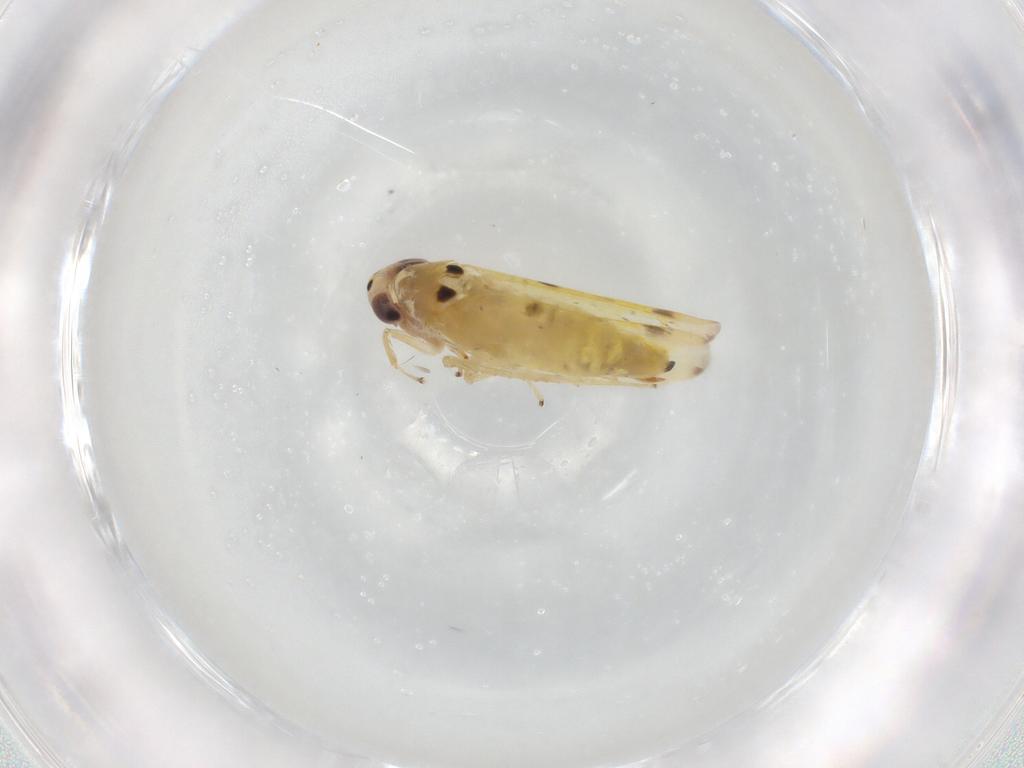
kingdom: Animalia
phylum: Arthropoda
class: Insecta
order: Hemiptera
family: Cicadellidae
